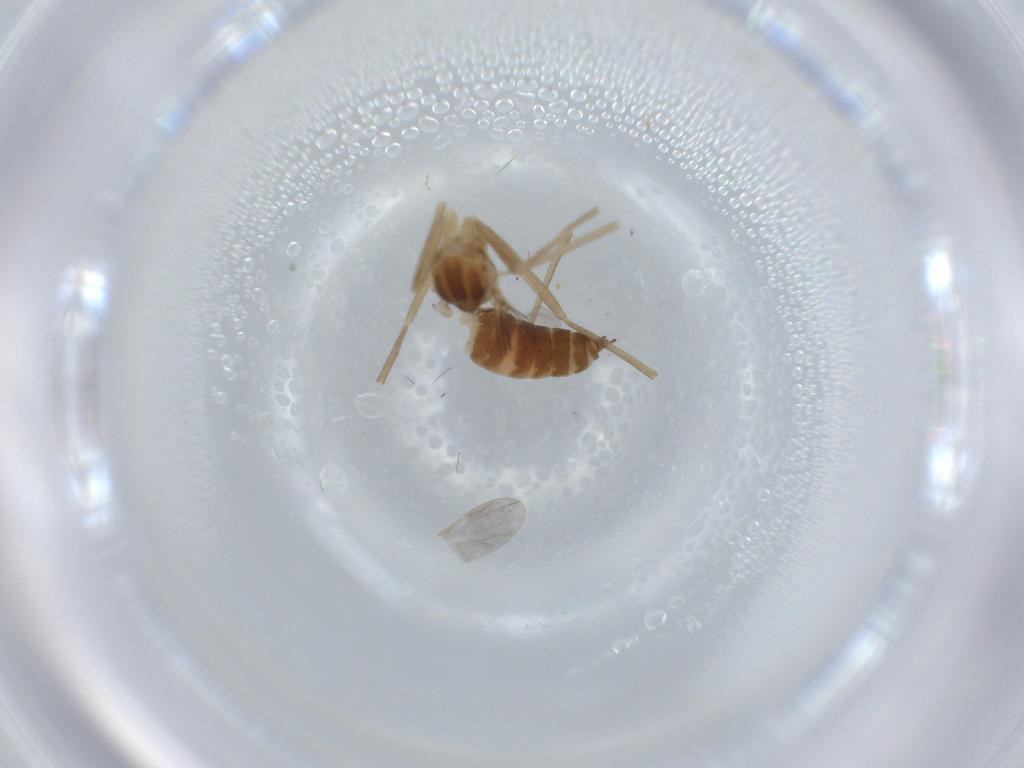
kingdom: Animalia
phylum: Arthropoda
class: Insecta
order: Diptera
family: Cecidomyiidae
